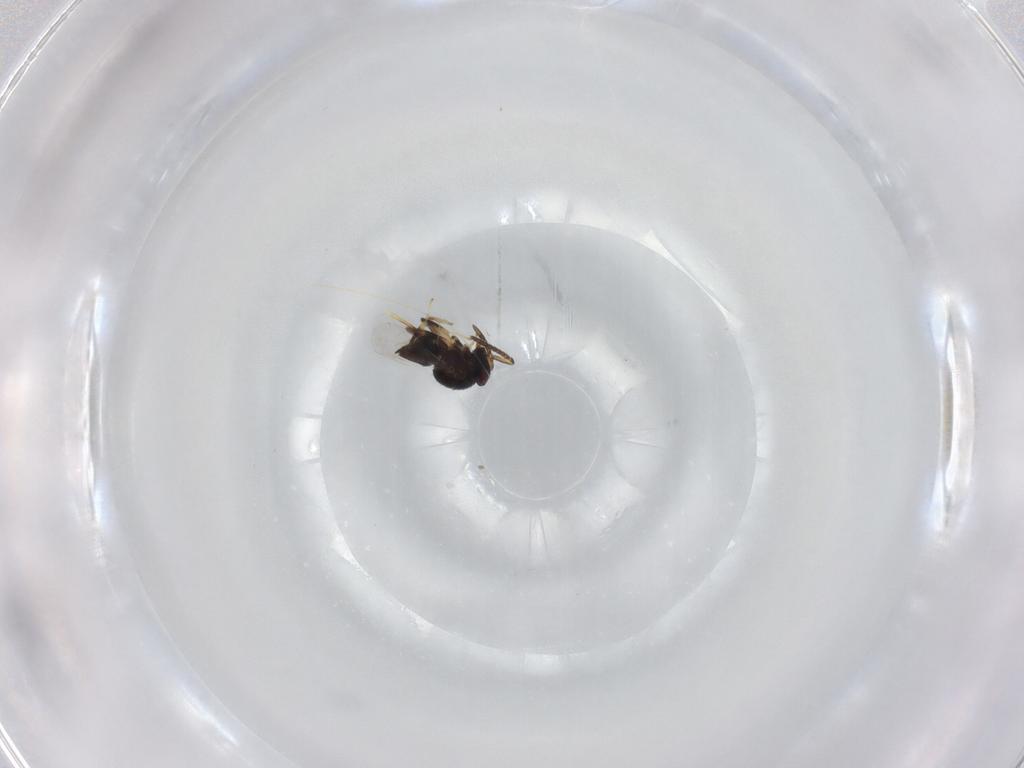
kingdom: Animalia
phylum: Arthropoda
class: Insecta
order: Hymenoptera
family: Encyrtidae
